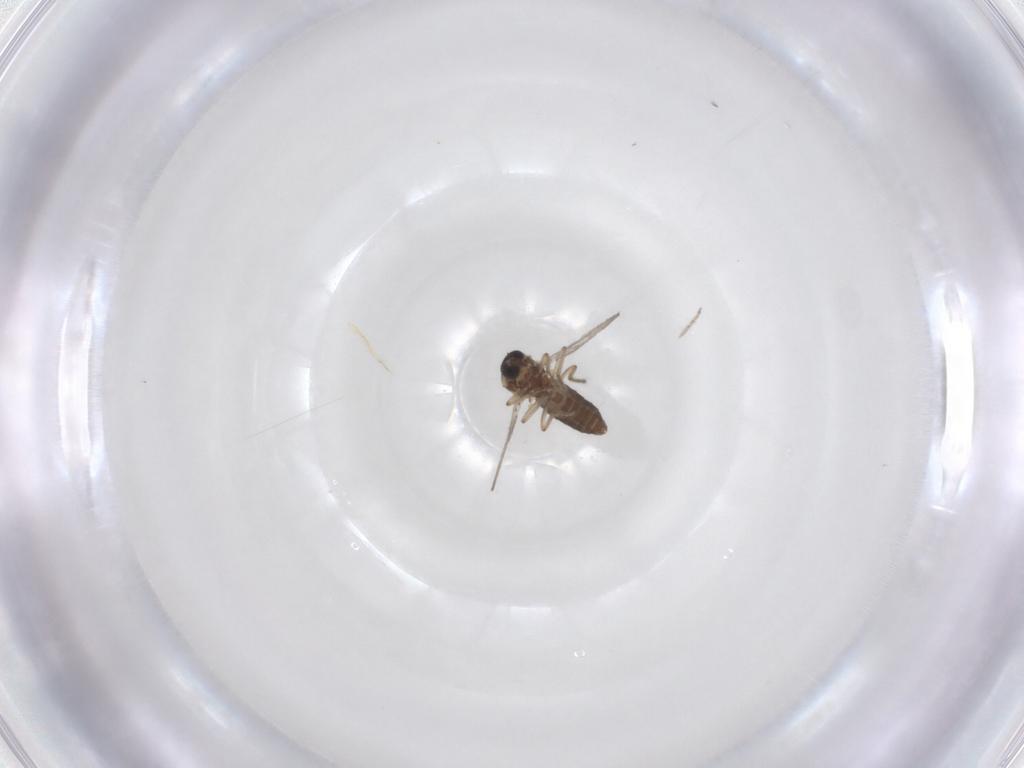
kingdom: Animalia
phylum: Arthropoda
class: Insecta
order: Diptera
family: Ceratopogonidae
